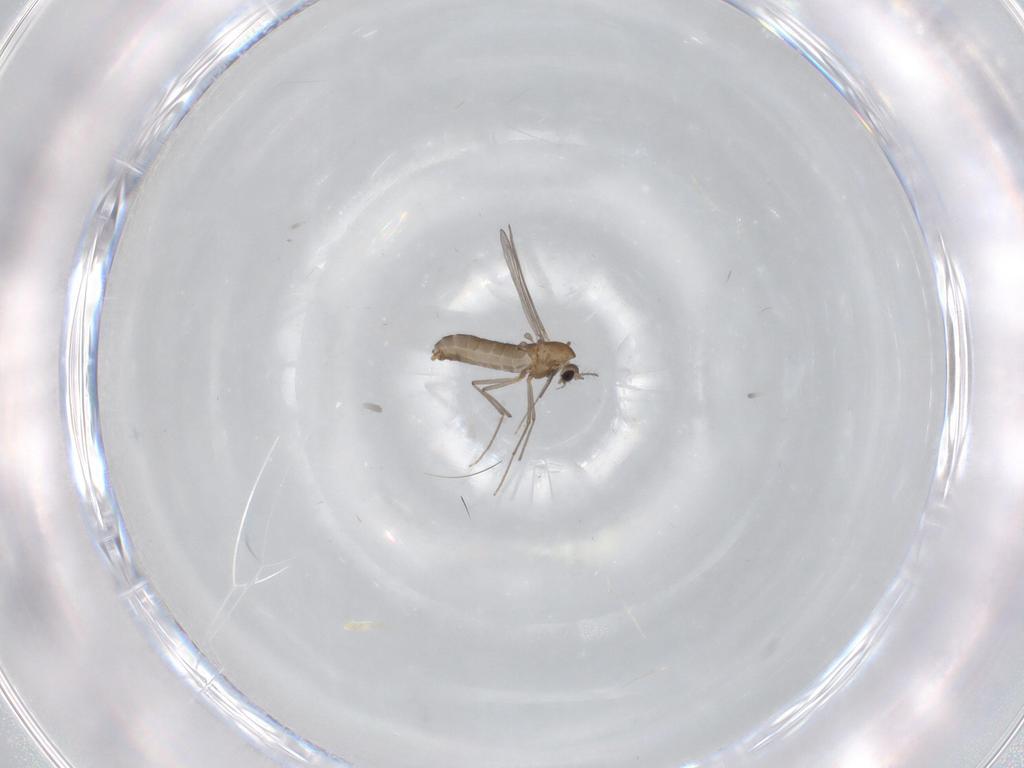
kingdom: Animalia
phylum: Arthropoda
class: Insecta
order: Diptera
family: Chironomidae
